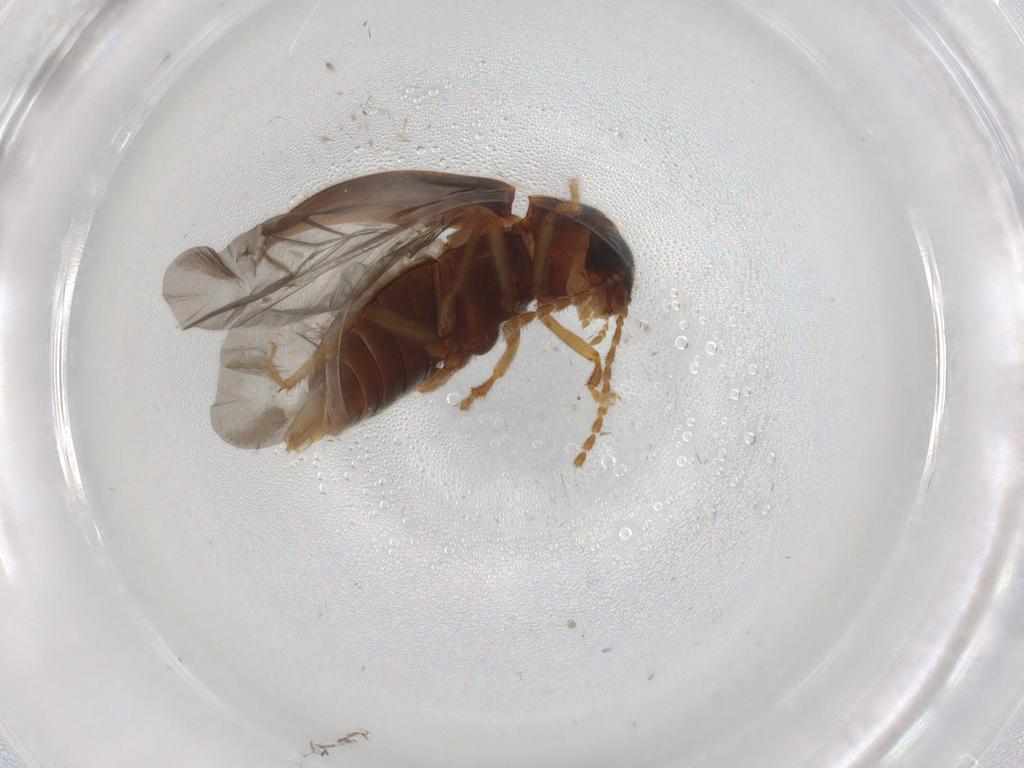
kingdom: Animalia
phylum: Arthropoda
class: Insecta
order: Coleoptera
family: Ptilodactylidae
